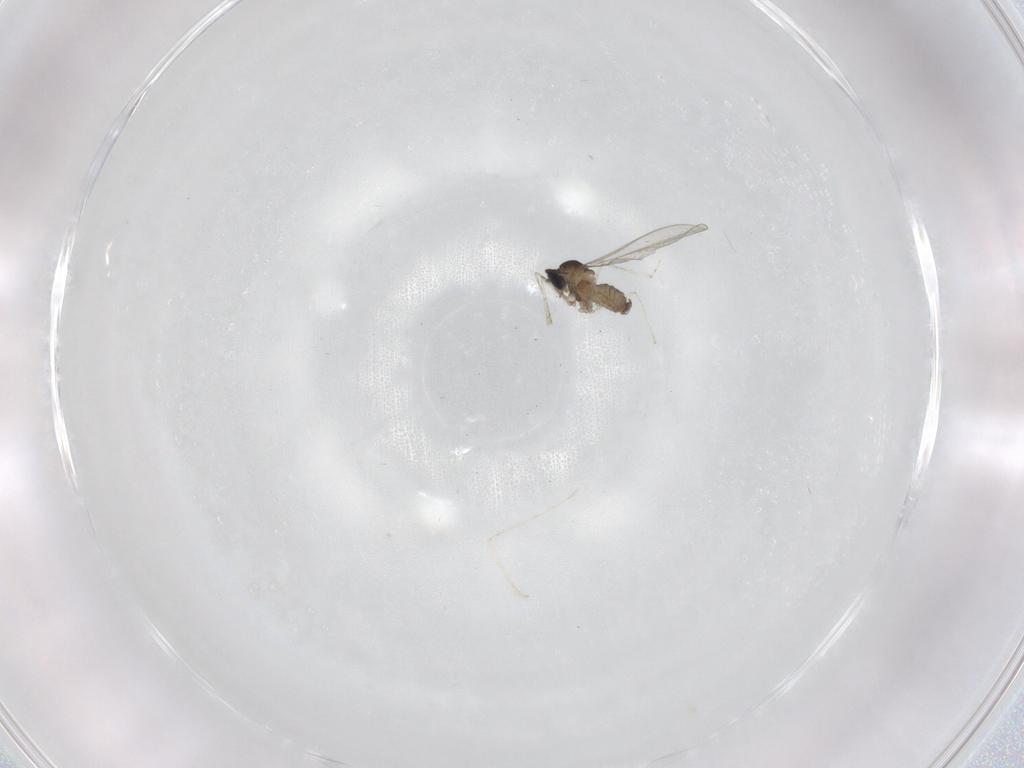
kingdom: Animalia
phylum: Arthropoda
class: Insecta
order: Diptera
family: Cecidomyiidae
